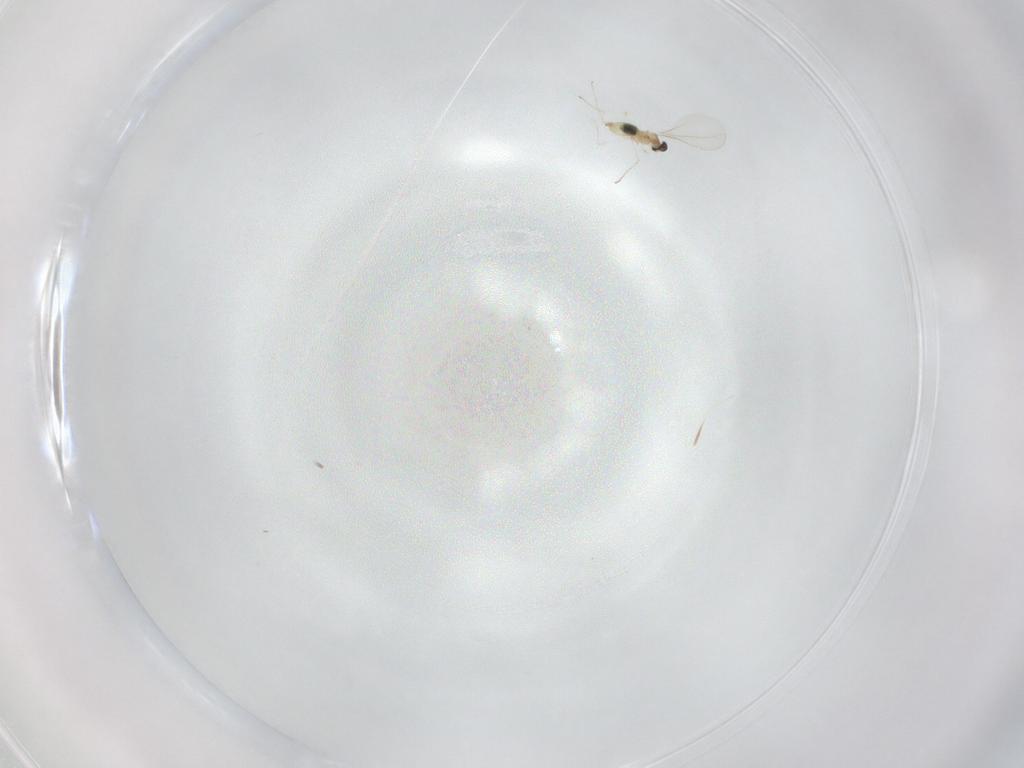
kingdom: Animalia
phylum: Arthropoda
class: Insecta
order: Diptera
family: Cecidomyiidae
